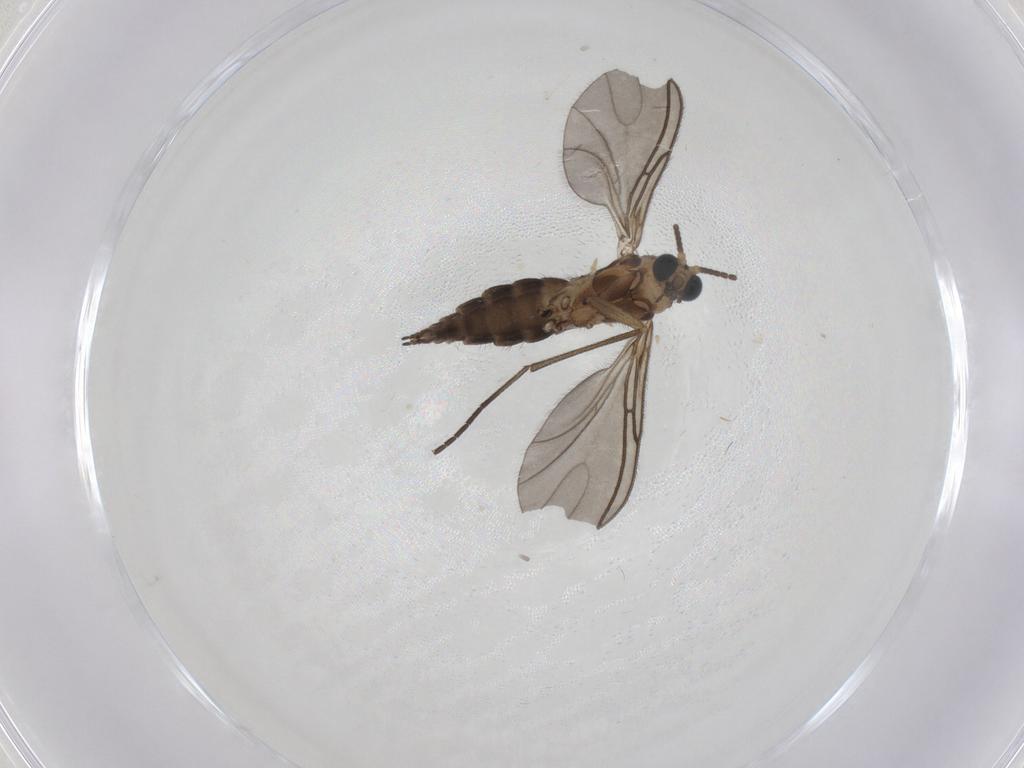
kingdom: Animalia
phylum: Arthropoda
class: Insecta
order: Diptera
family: Sciaridae
